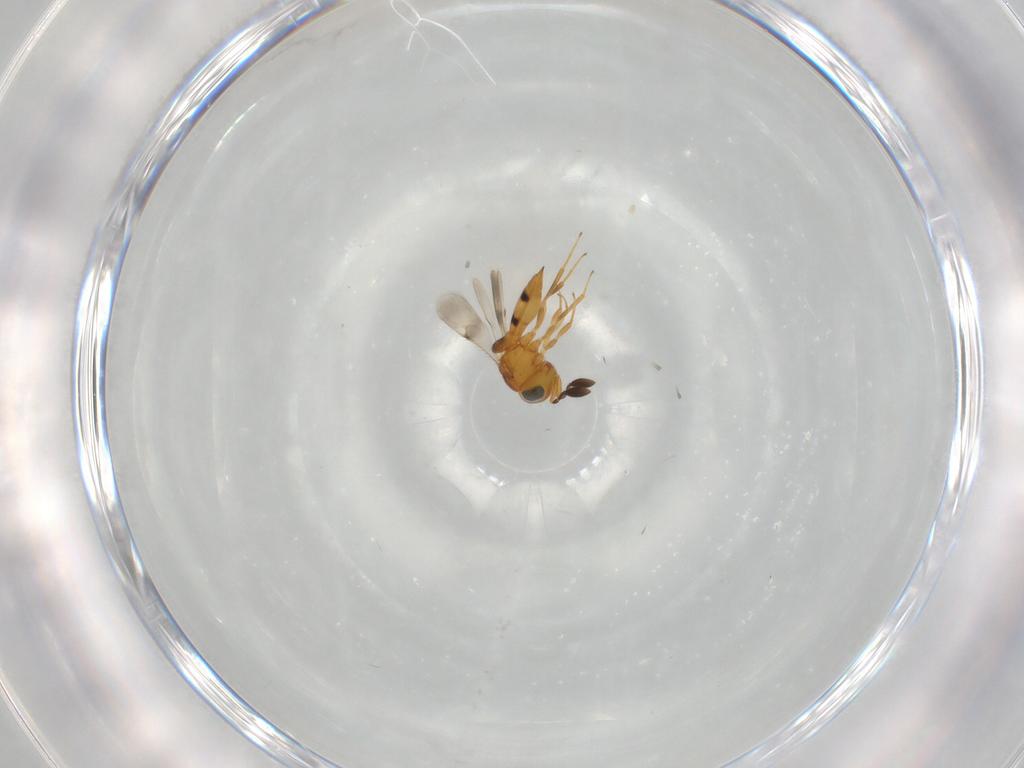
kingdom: Animalia
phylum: Arthropoda
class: Insecta
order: Hymenoptera
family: Scelionidae
